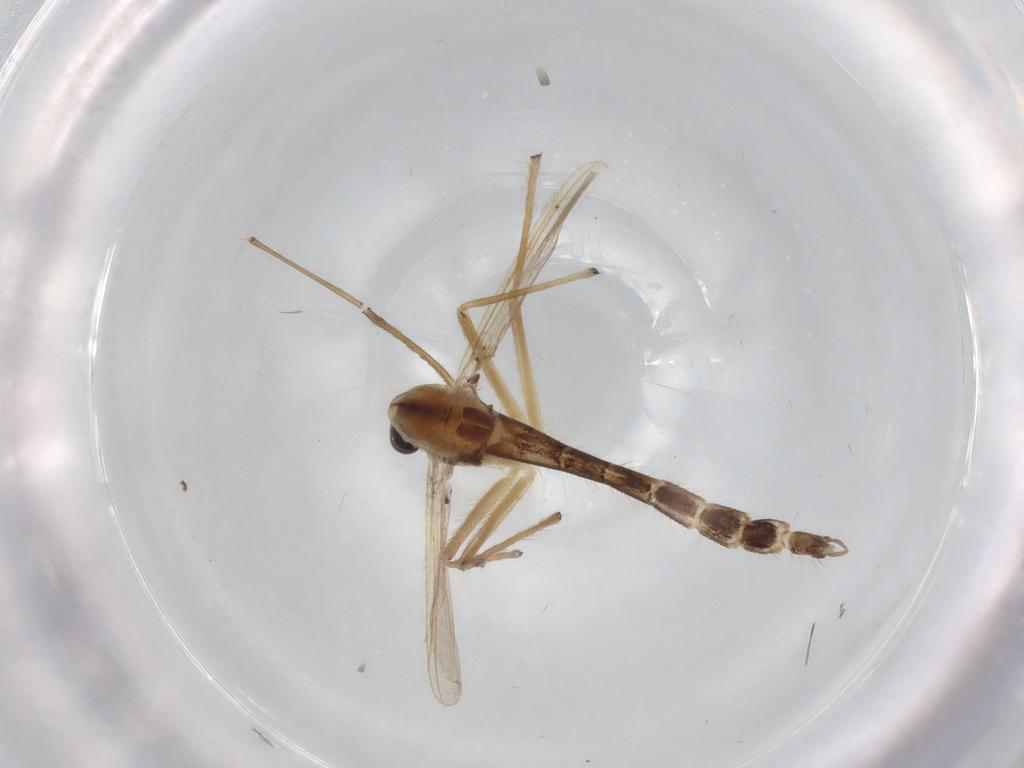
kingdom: Animalia
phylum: Arthropoda
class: Insecta
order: Diptera
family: Chironomidae
